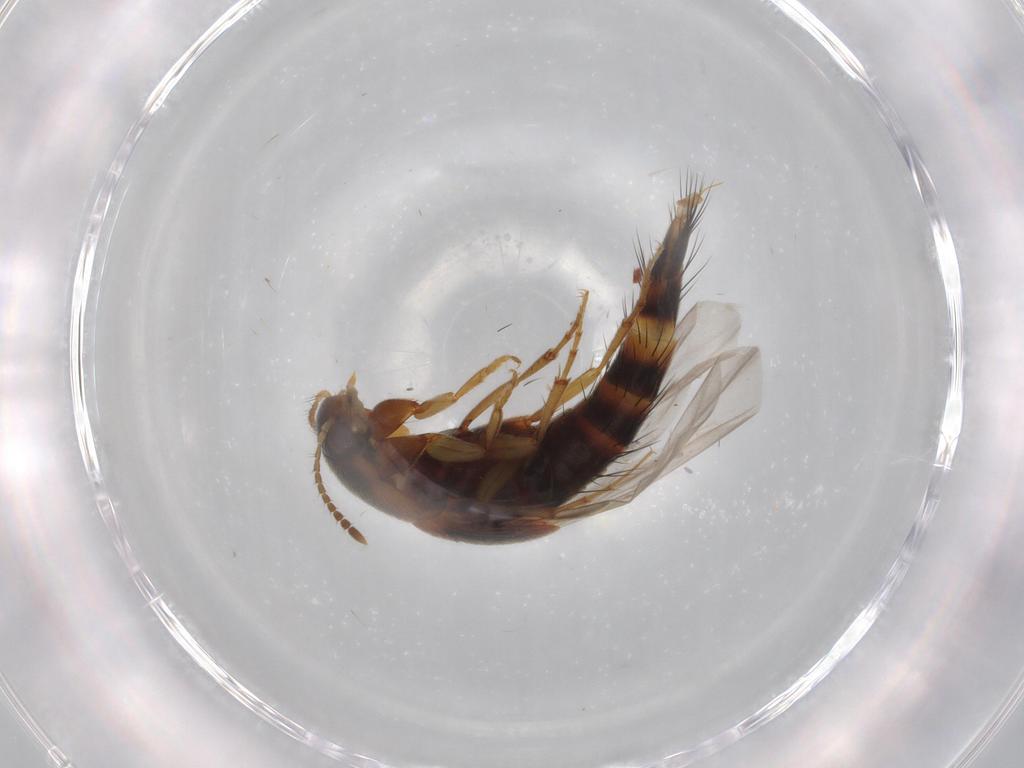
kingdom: Animalia
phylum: Arthropoda
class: Insecta
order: Coleoptera
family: Staphylinidae
